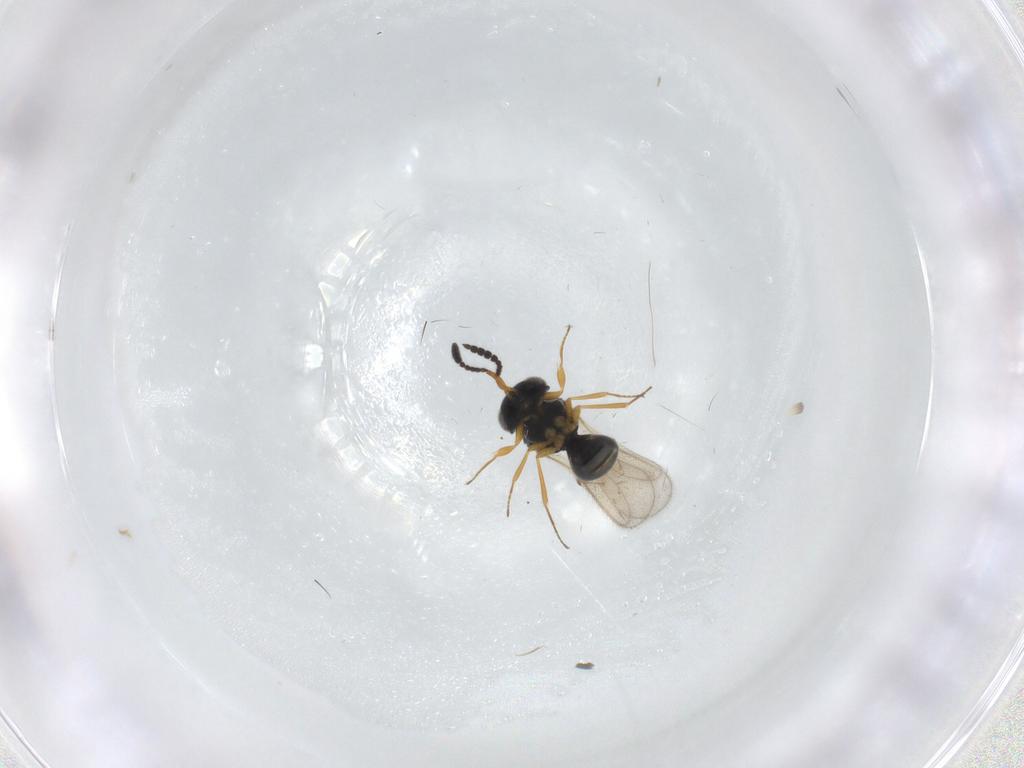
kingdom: Animalia
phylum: Arthropoda
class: Insecta
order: Hymenoptera
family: Scelionidae
